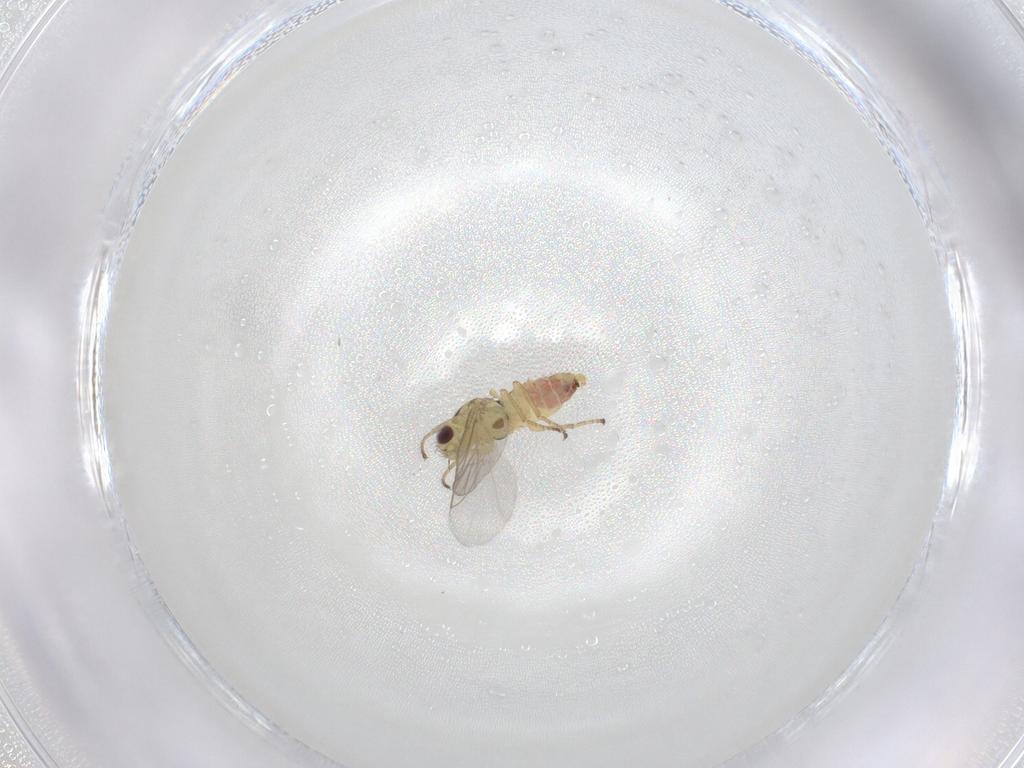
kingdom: Animalia
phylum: Arthropoda
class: Insecta
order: Diptera
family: Agromyzidae
